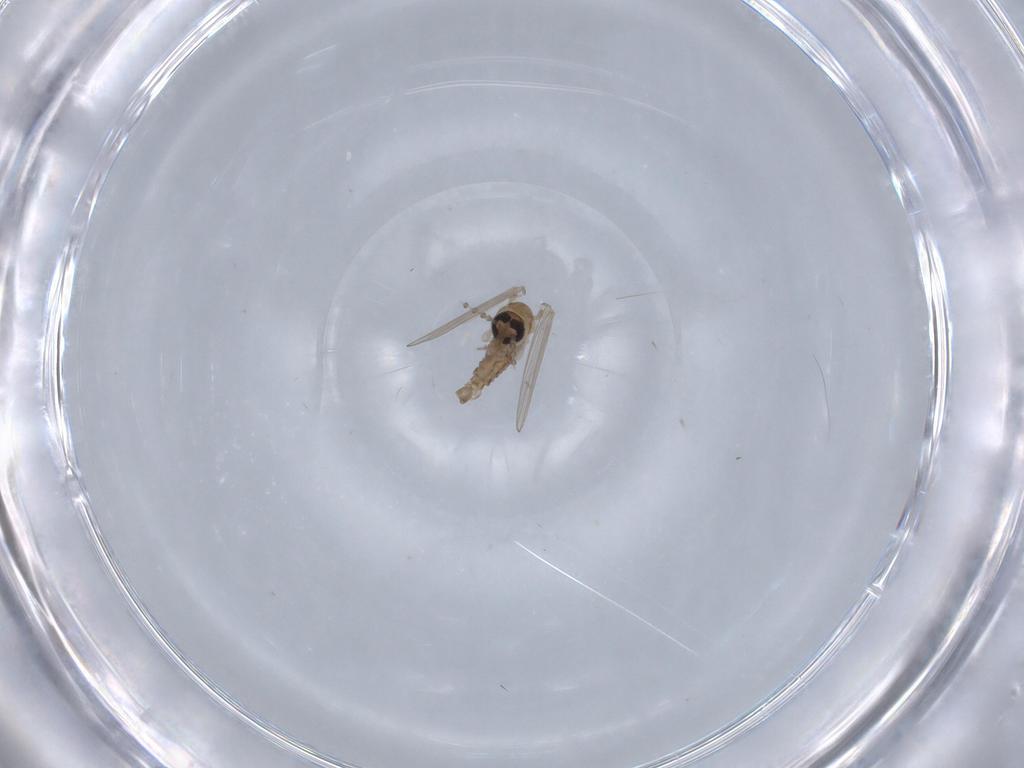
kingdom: Animalia
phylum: Arthropoda
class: Insecta
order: Diptera
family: Psychodidae
